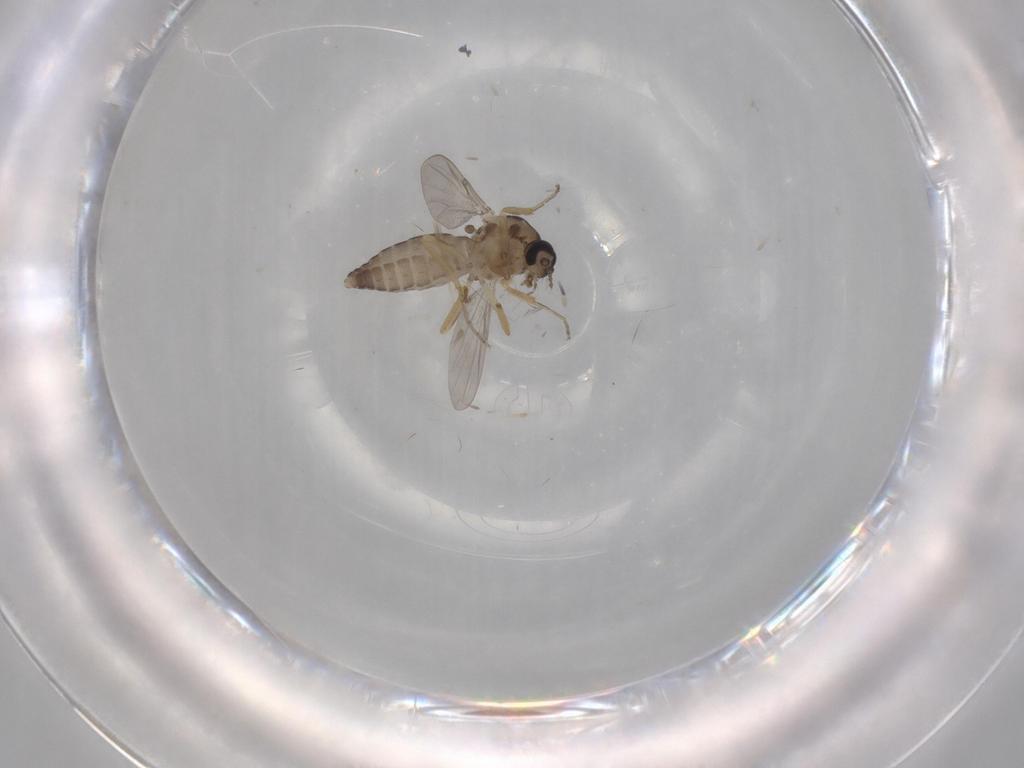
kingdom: Animalia
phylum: Arthropoda
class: Insecta
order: Diptera
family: Ceratopogonidae
